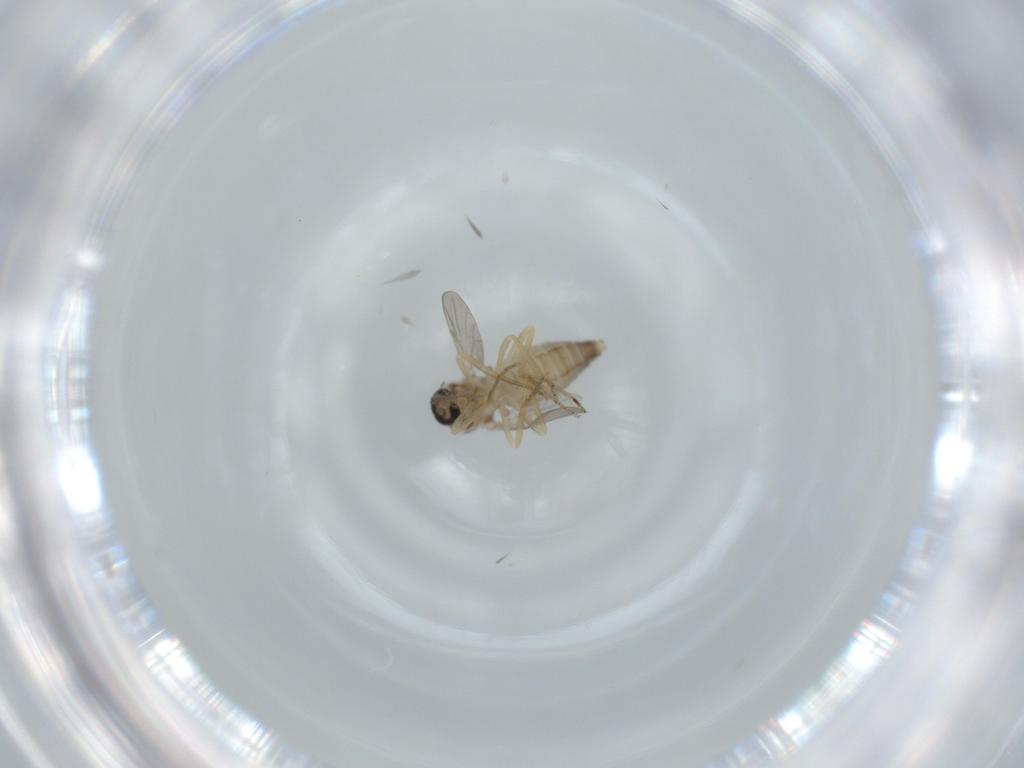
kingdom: Animalia
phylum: Arthropoda
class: Insecta
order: Diptera
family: Ceratopogonidae
